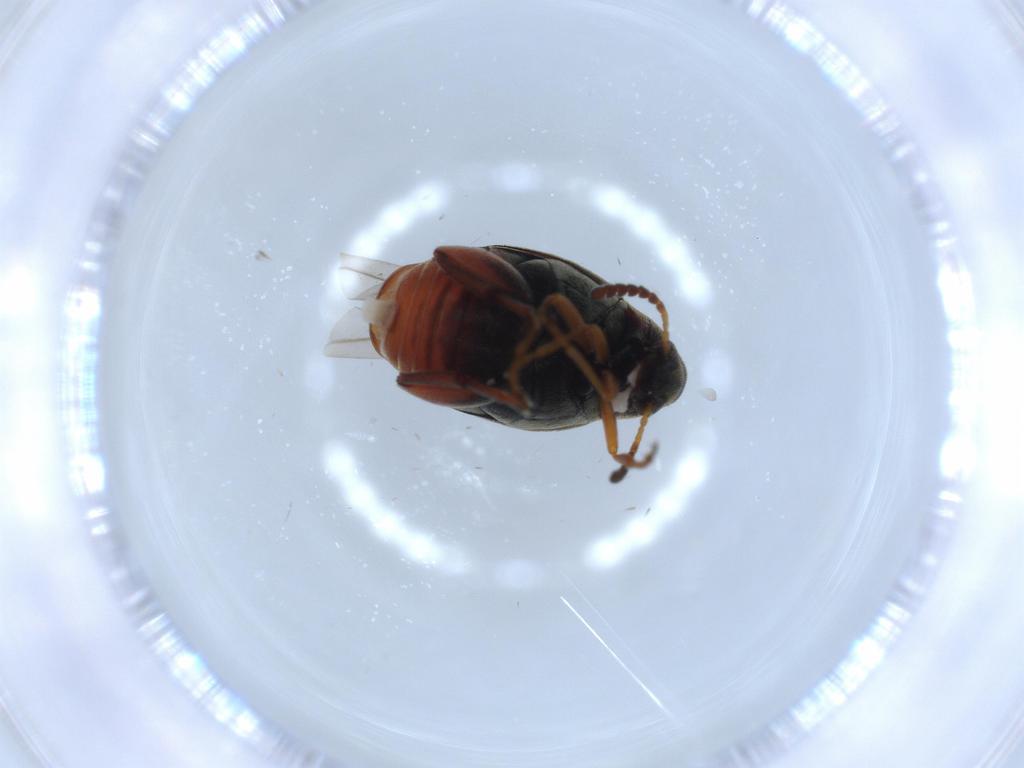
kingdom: Animalia
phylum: Arthropoda
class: Insecta
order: Coleoptera
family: Chrysomelidae
